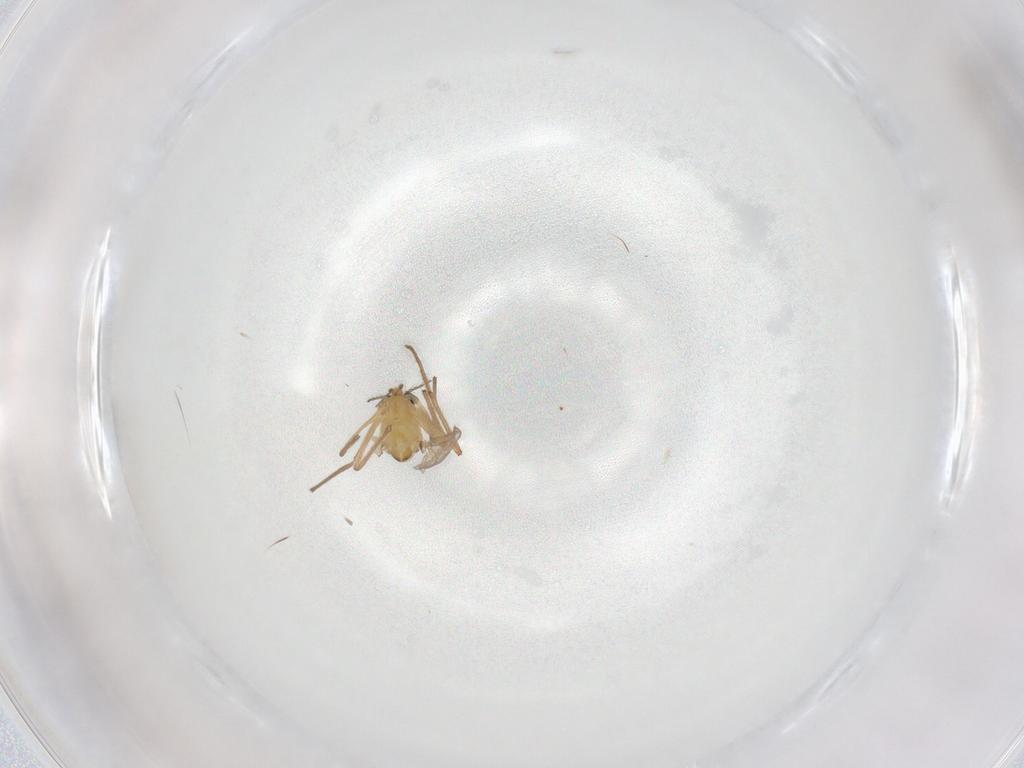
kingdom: Animalia
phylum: Arthropoda
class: Insecta
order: Diptera
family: Chironomidae
